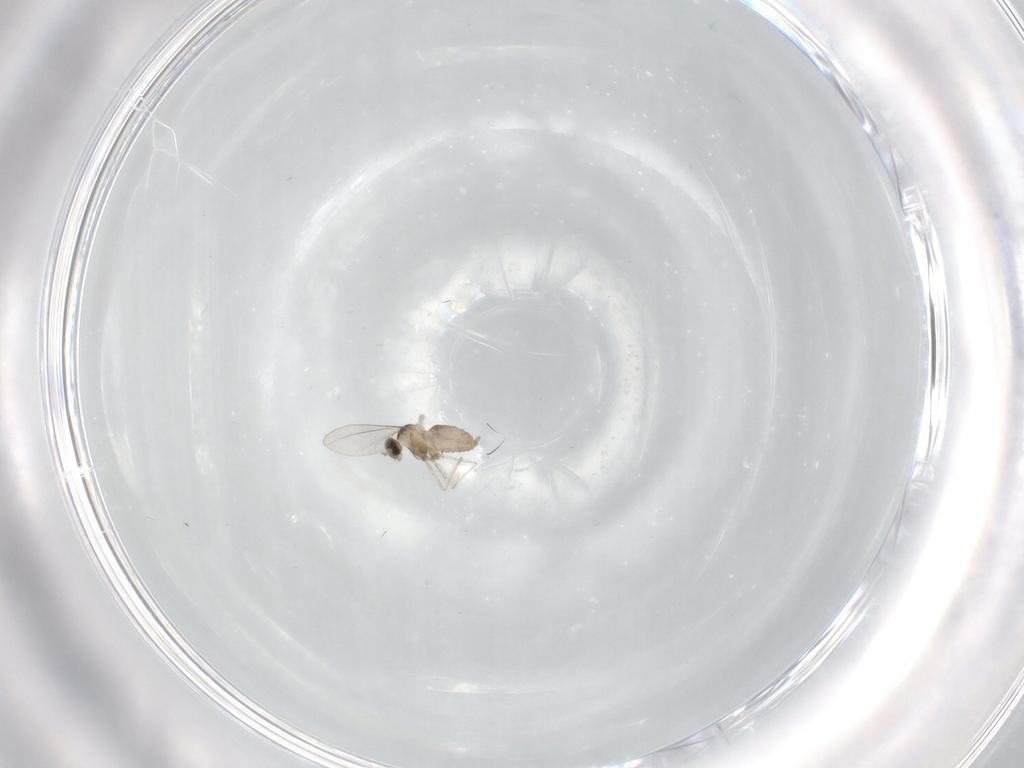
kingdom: Animalia
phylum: Arthropoda
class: Insecta
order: Diptera
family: Cecidomyiidae
